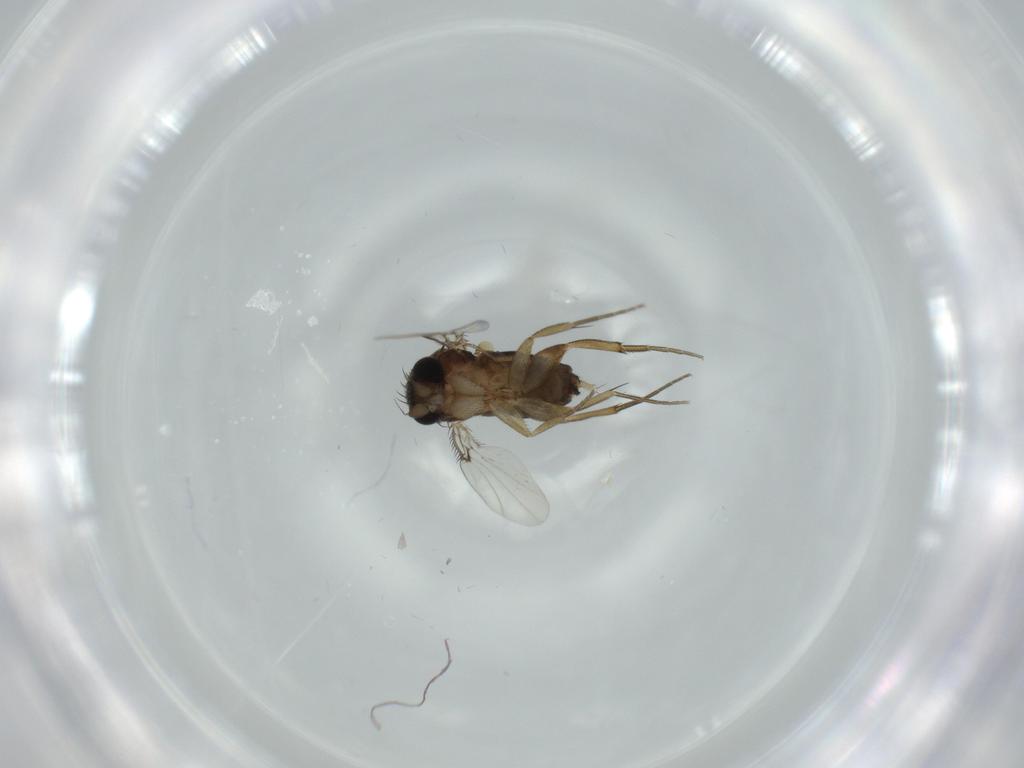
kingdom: Animalia
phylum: Arthropoda
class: Insecta
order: Diptera
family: Phoridae
